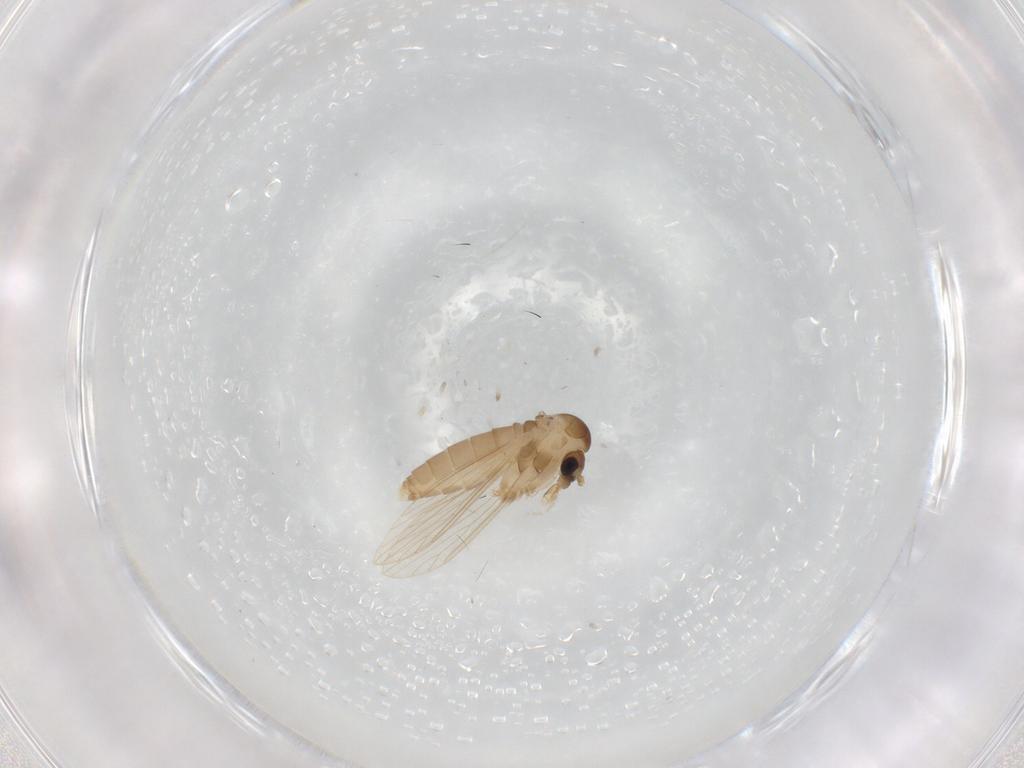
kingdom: Animalia
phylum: Arthropoda
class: Insecta
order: Diptera
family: Psychodidae
